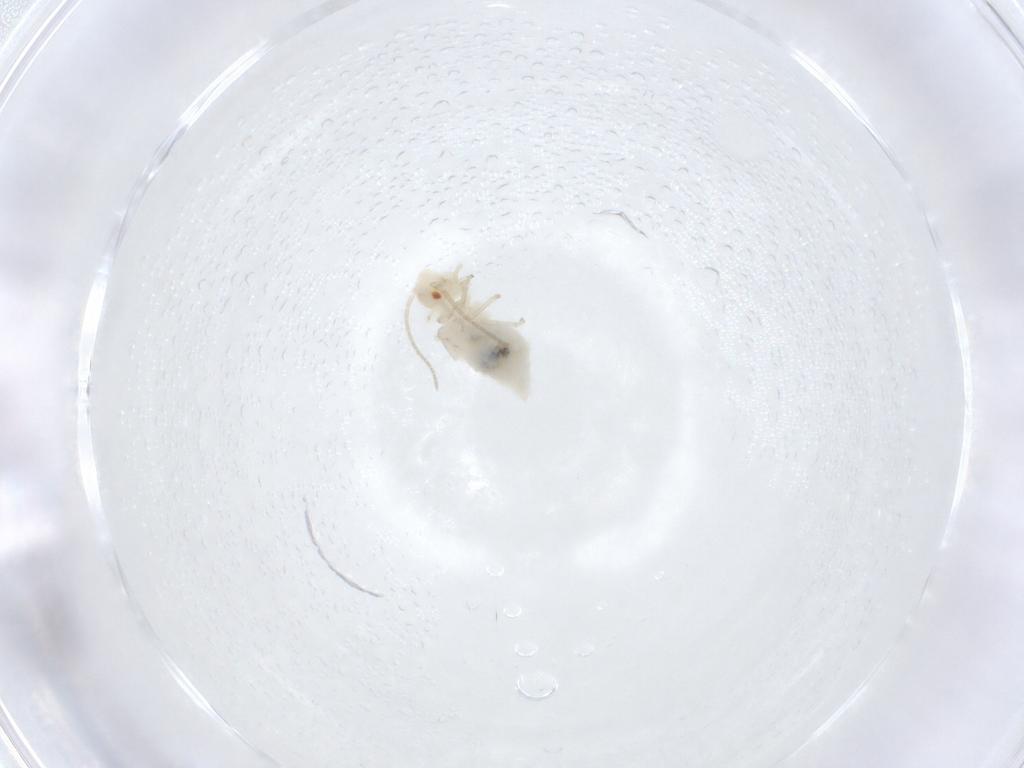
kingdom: Animalia
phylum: Arthropoda
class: Insecta
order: Psocodea
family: Caeciliusidae
